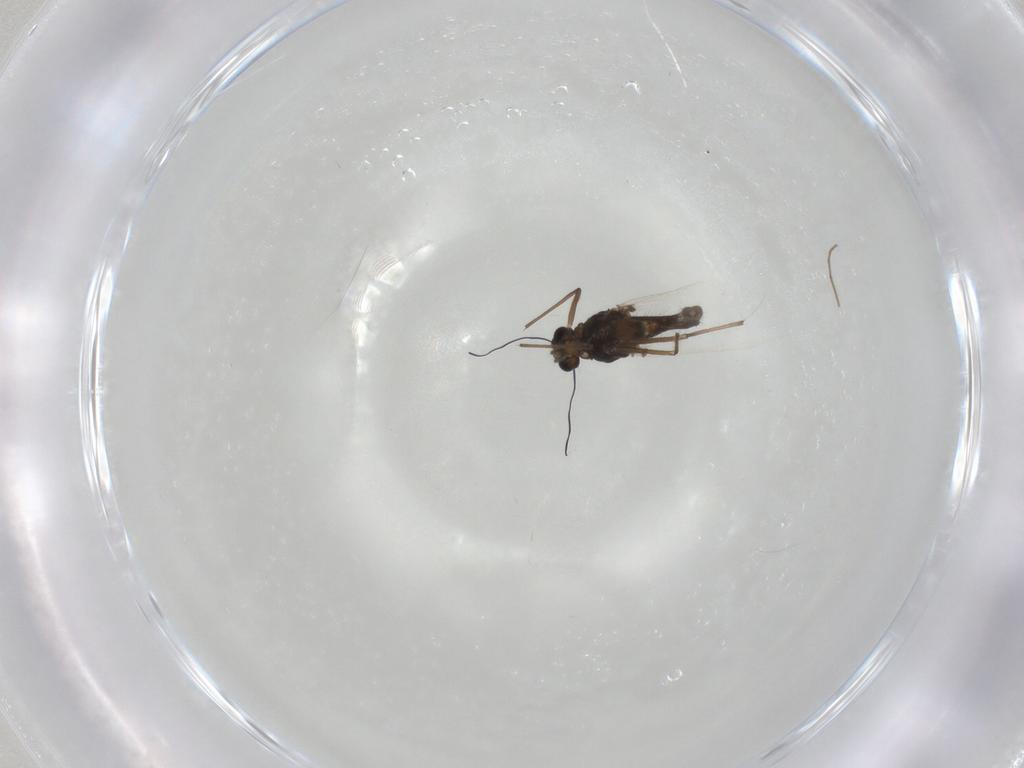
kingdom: Animalia
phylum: Arthropoda
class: Insecta
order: Diptera
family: Chironomidae
